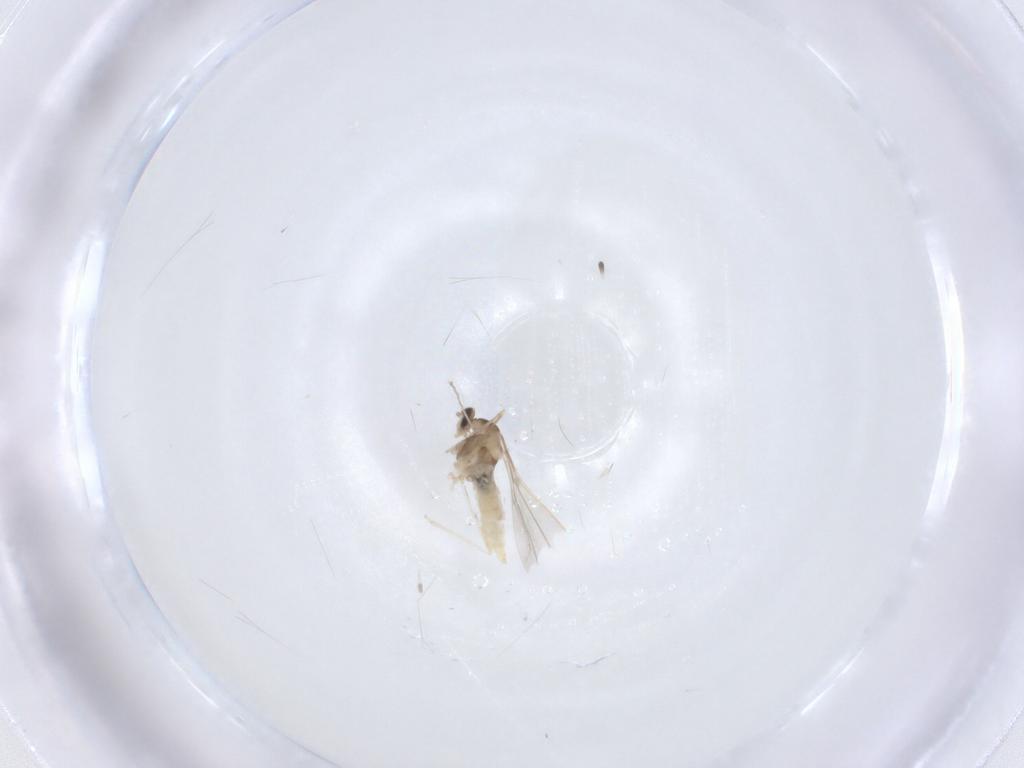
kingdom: Animalia
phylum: Arthropoda
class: Insecta
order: Diptera
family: Cecidomyiidae
